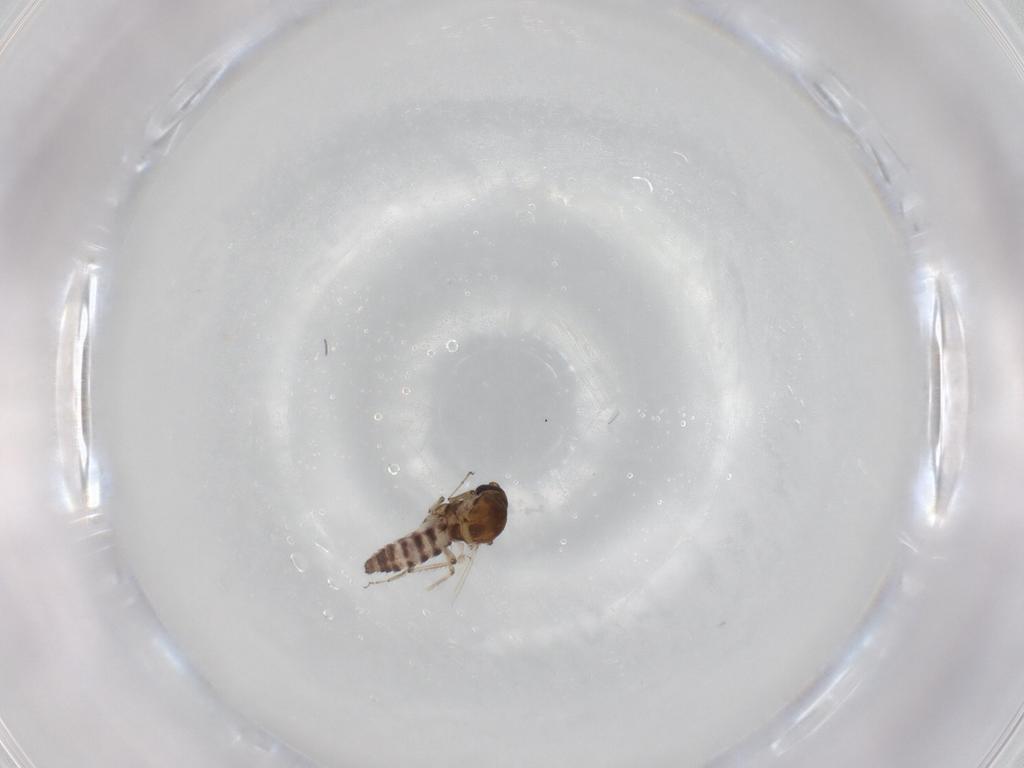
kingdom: Animalia
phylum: Arthropoda
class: Insecta
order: Diptera
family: Ceratopogonidae
